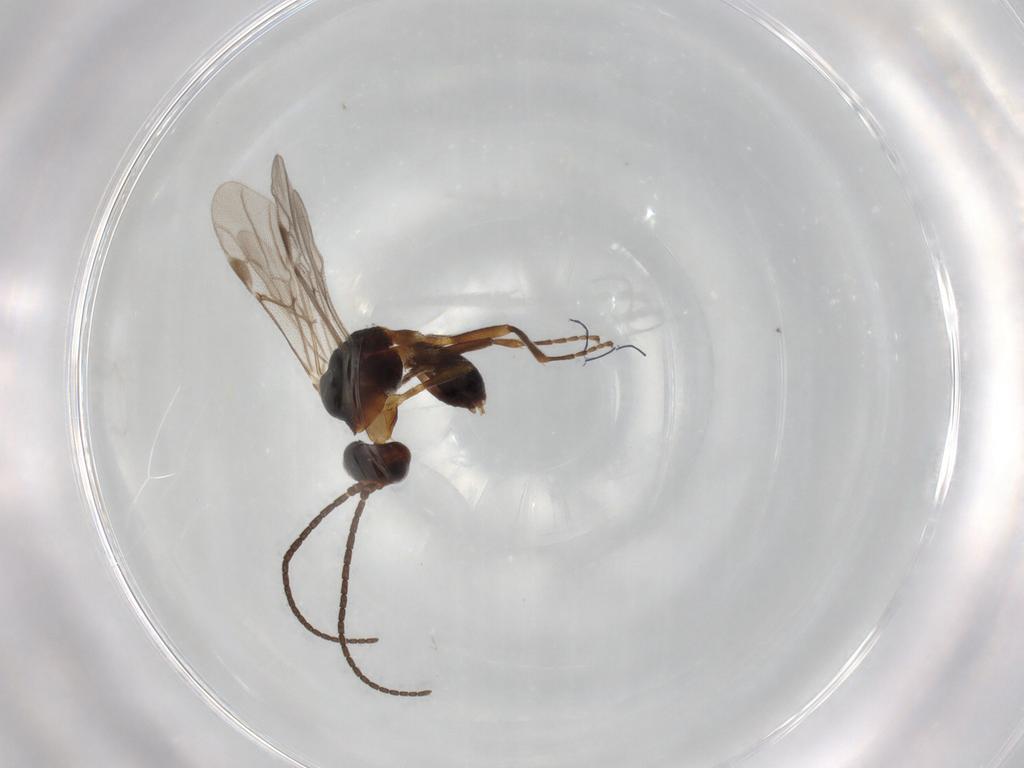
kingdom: Animalia
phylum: Arthropoda
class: Insecta
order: Hymenoptera
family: Braconidae
